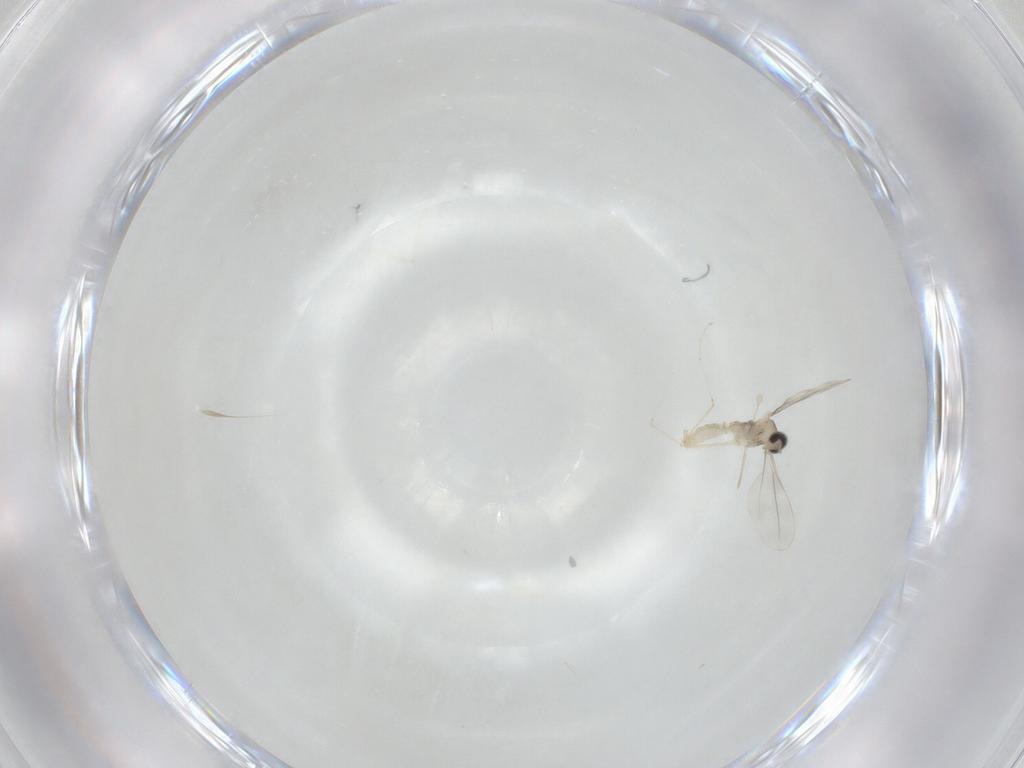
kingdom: Animalia
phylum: Arthropoda
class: Insecta
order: Diptera
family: Cecidomyiidae
